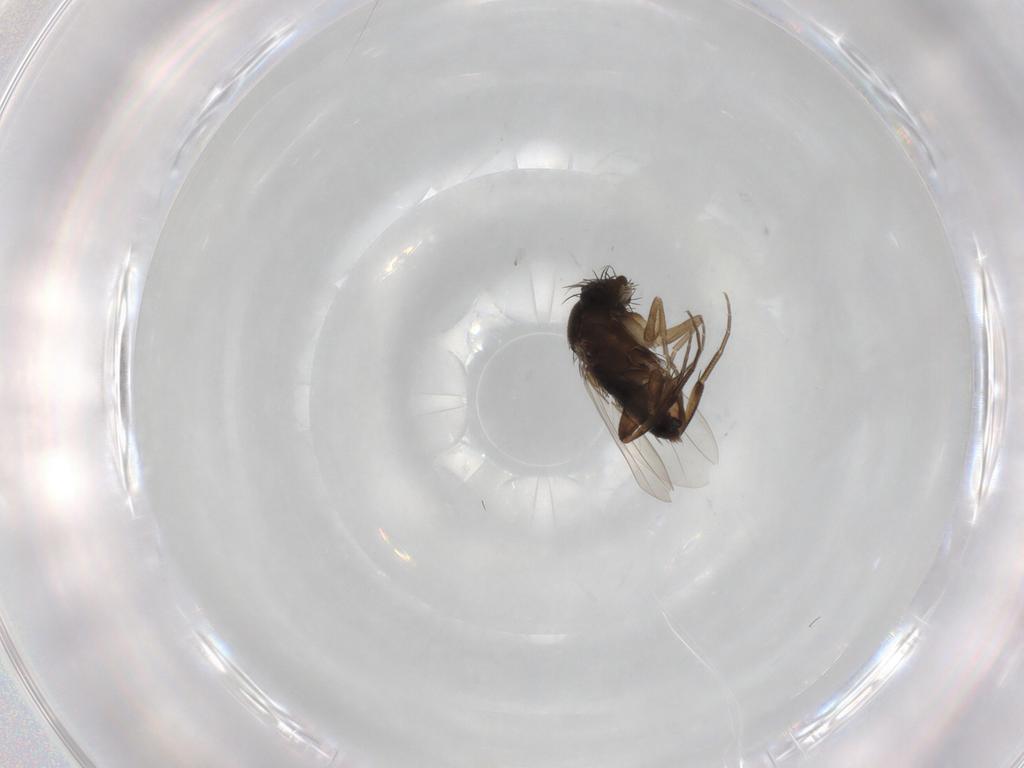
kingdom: Animalia
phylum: Arthropoda
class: Insecta
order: Diptera
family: Phoridae
